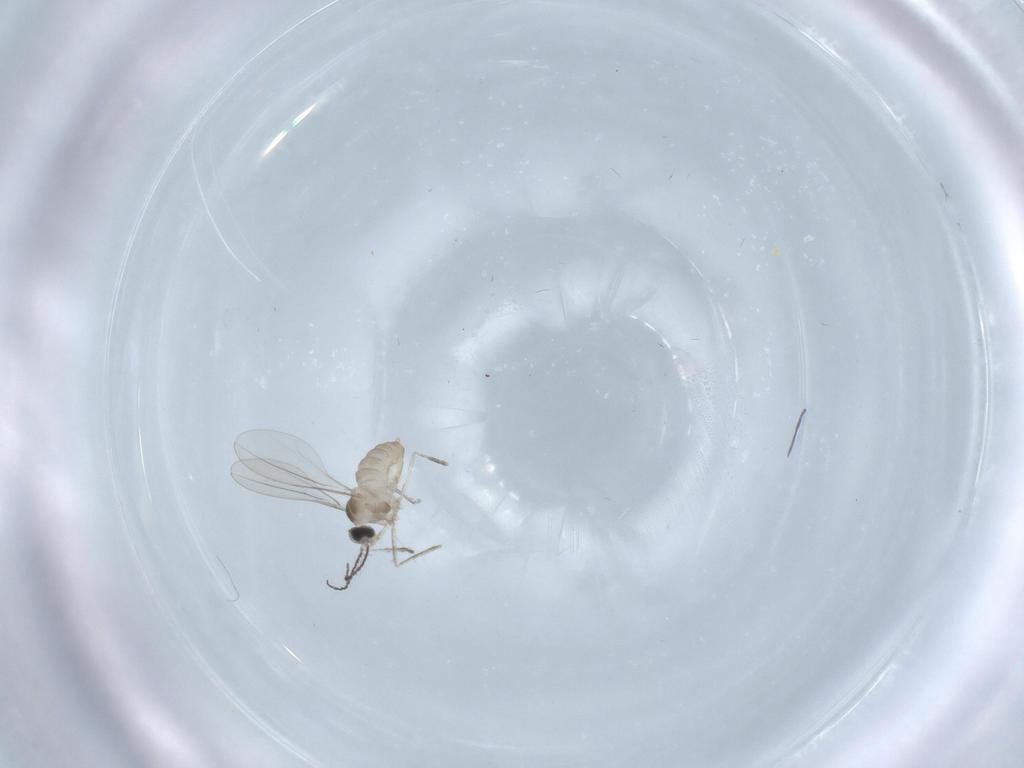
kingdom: Animalia
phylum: Arthropoda
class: Insecta
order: Diptera
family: Cecidomyiidae
